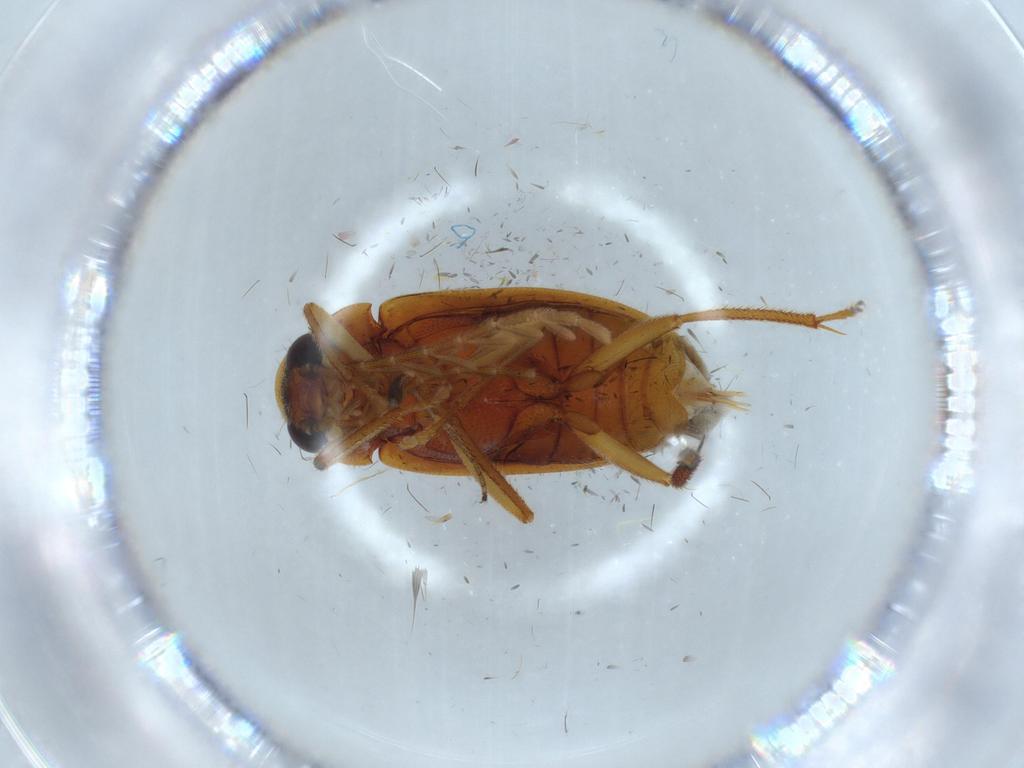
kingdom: Animalia
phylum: Arthropoda
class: Insecta
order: Coleoptera
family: Ptilodactylidae
